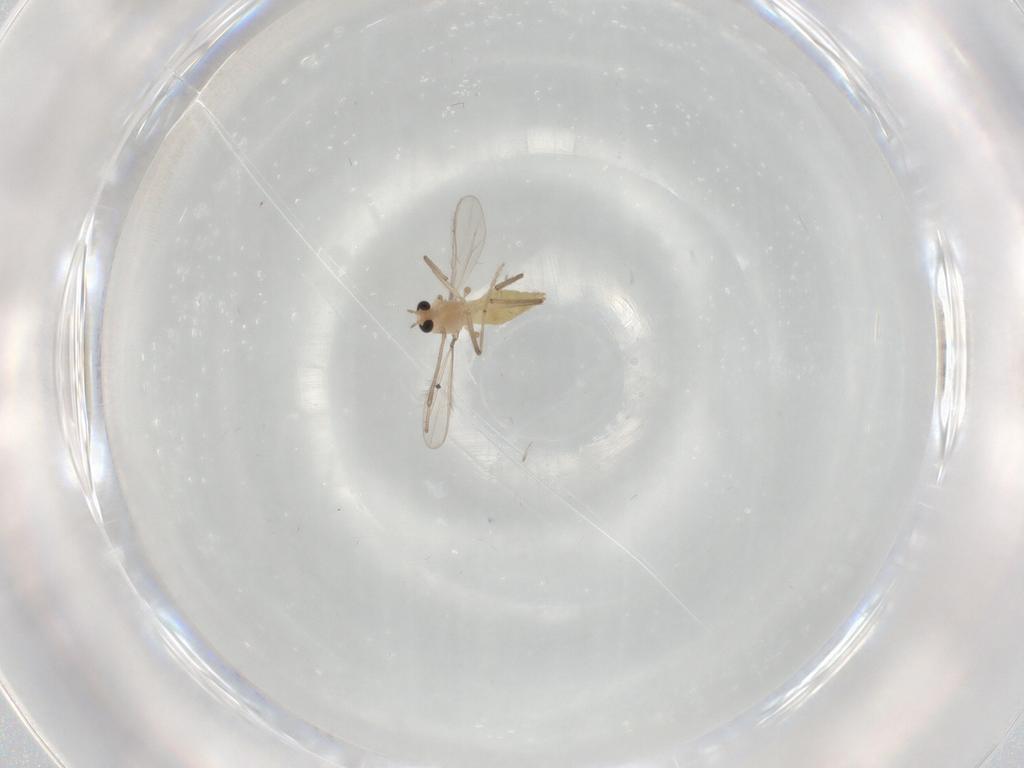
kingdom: Animalia
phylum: Arthropoda
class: Insecta
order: Diptera
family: Chironomidae
